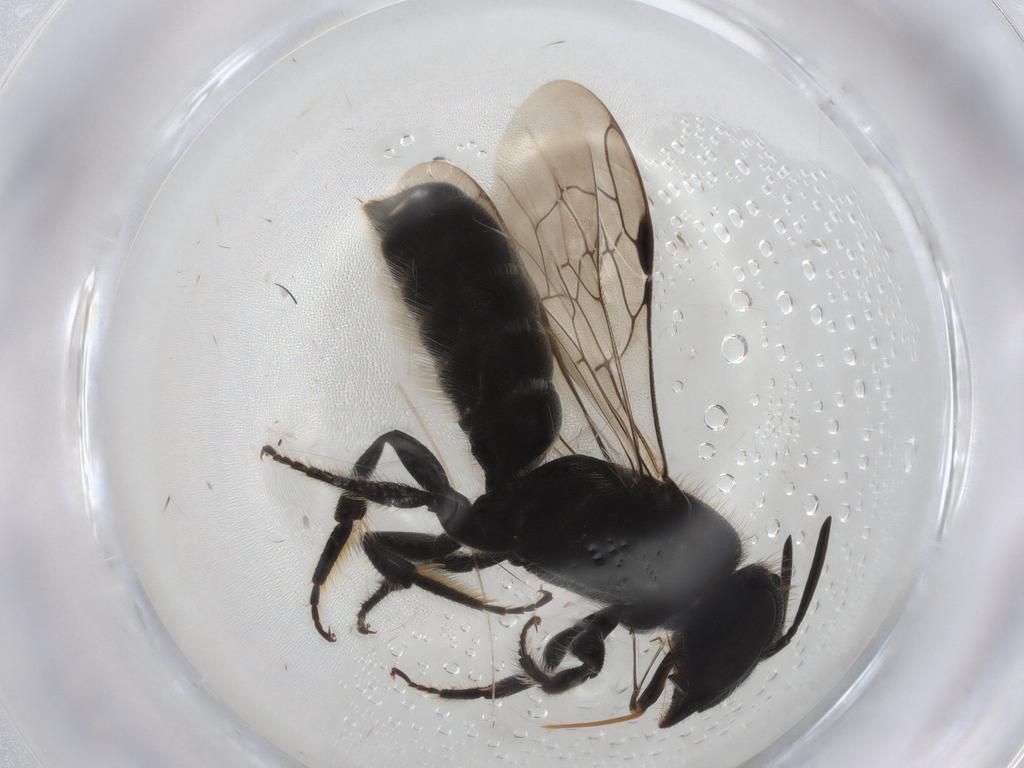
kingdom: Animalia
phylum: Arthropoda
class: Insecta
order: Hymenoptera
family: Megachilidae
